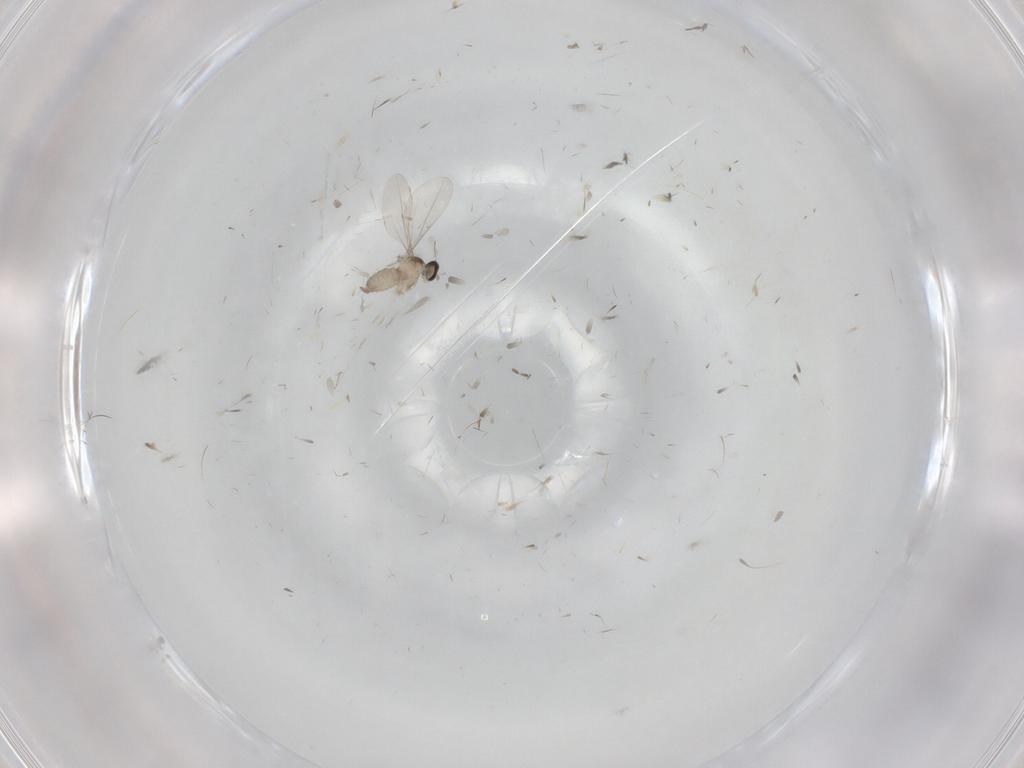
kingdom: Animalia
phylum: Arthropoda
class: Insecta
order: Diptera
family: Cecidomyiidae
